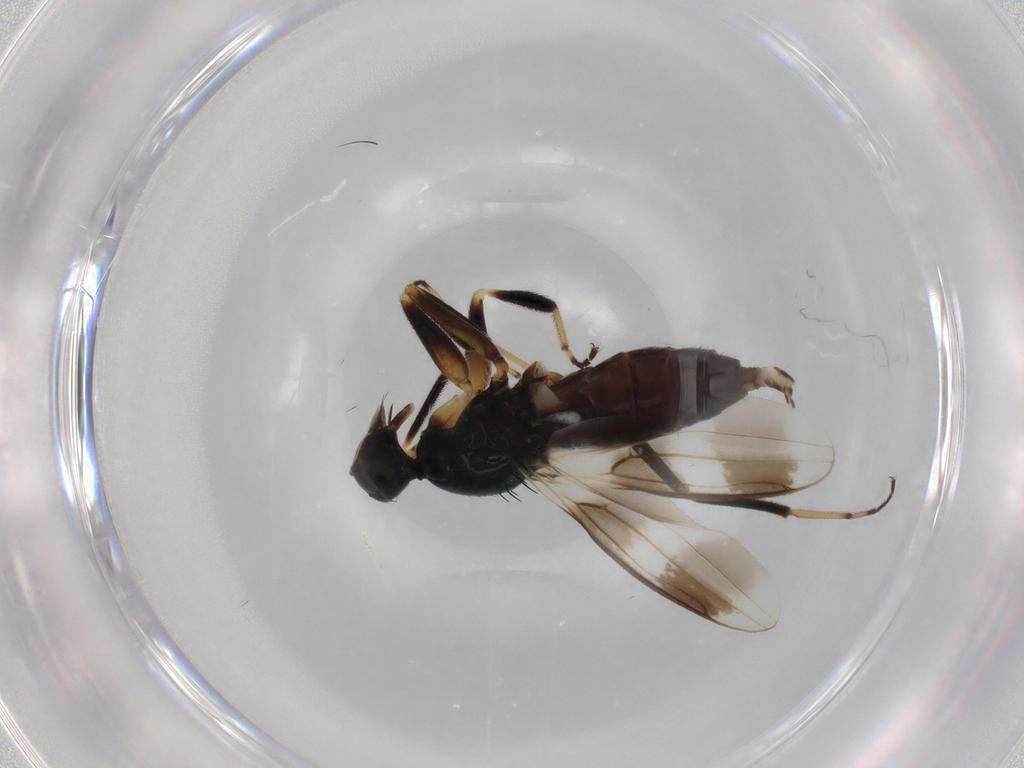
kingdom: Animalia
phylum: Arthropoda
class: Insecta
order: Diptera
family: Hybotidae
